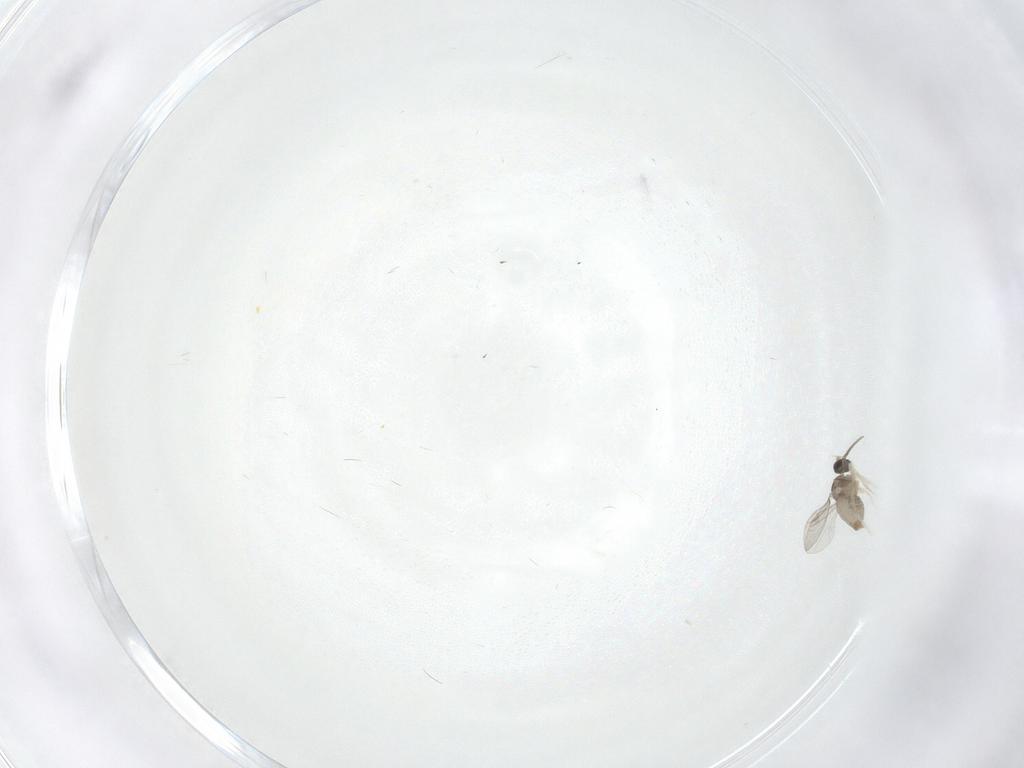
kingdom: Animalia
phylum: Arthropoda
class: Insecta
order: Diptera
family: Cecidomyiidae
